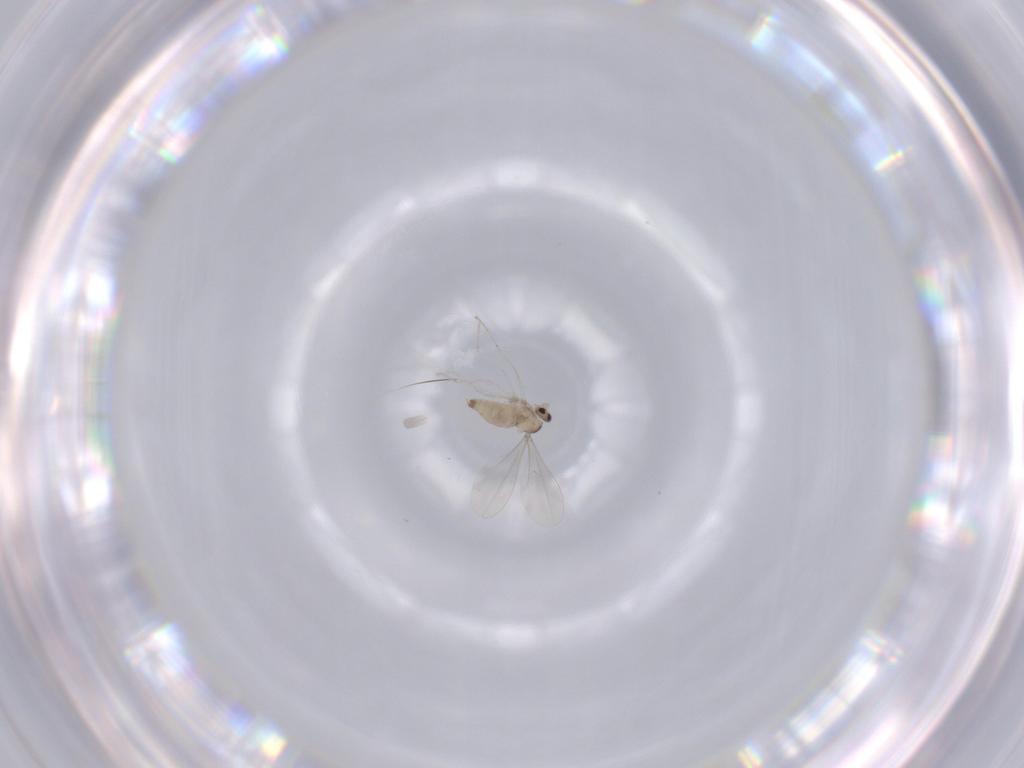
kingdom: Animalia
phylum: Arthropoda
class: Insecta
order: Diptera
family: Cecidomyiidae
